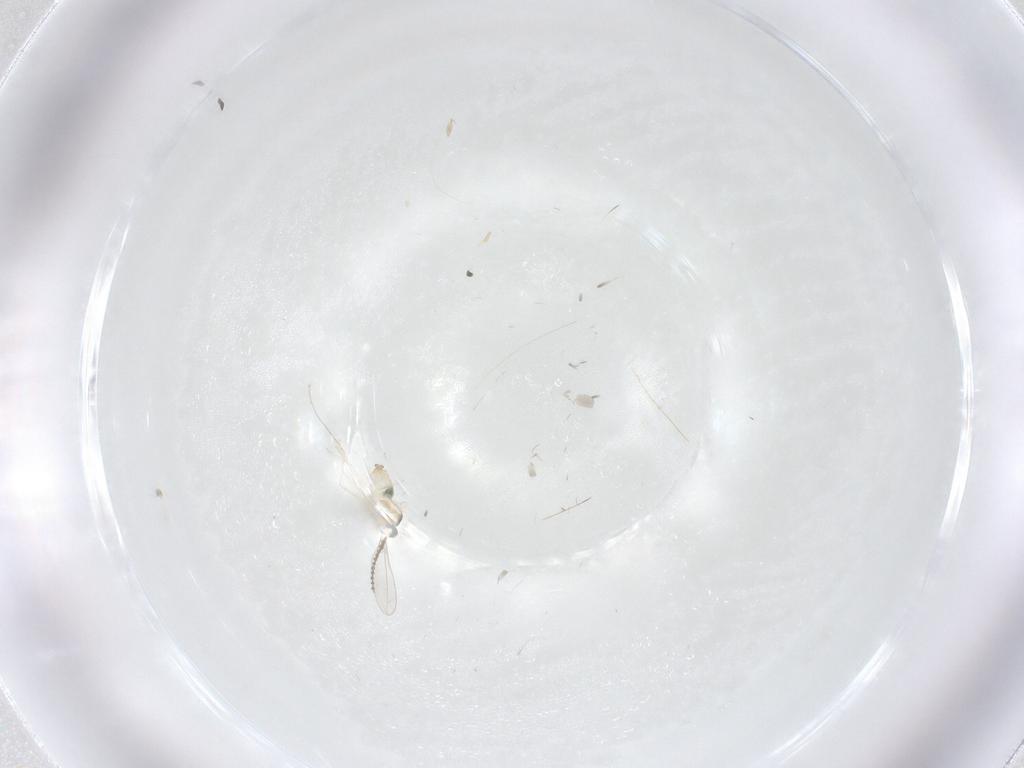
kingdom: Animalia
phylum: Arthropoda
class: Insecta
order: Diptera
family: Cecidomyiidae
